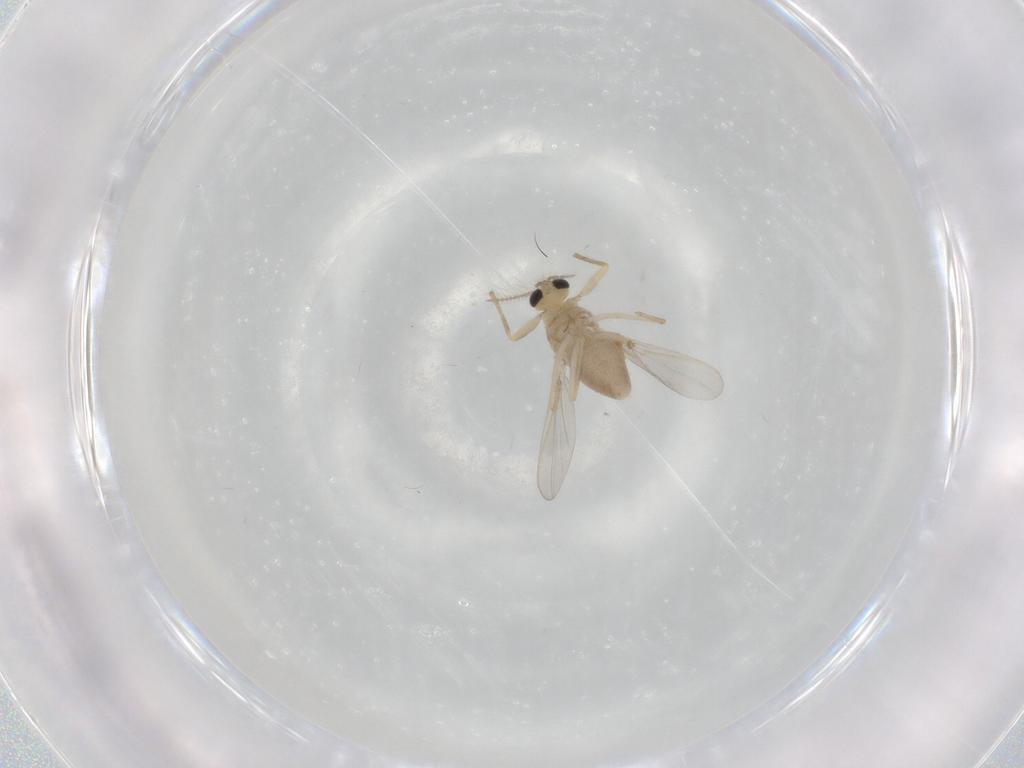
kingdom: Animalia
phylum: Arthropoda
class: Insecta
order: Diptera
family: Chironomidae
